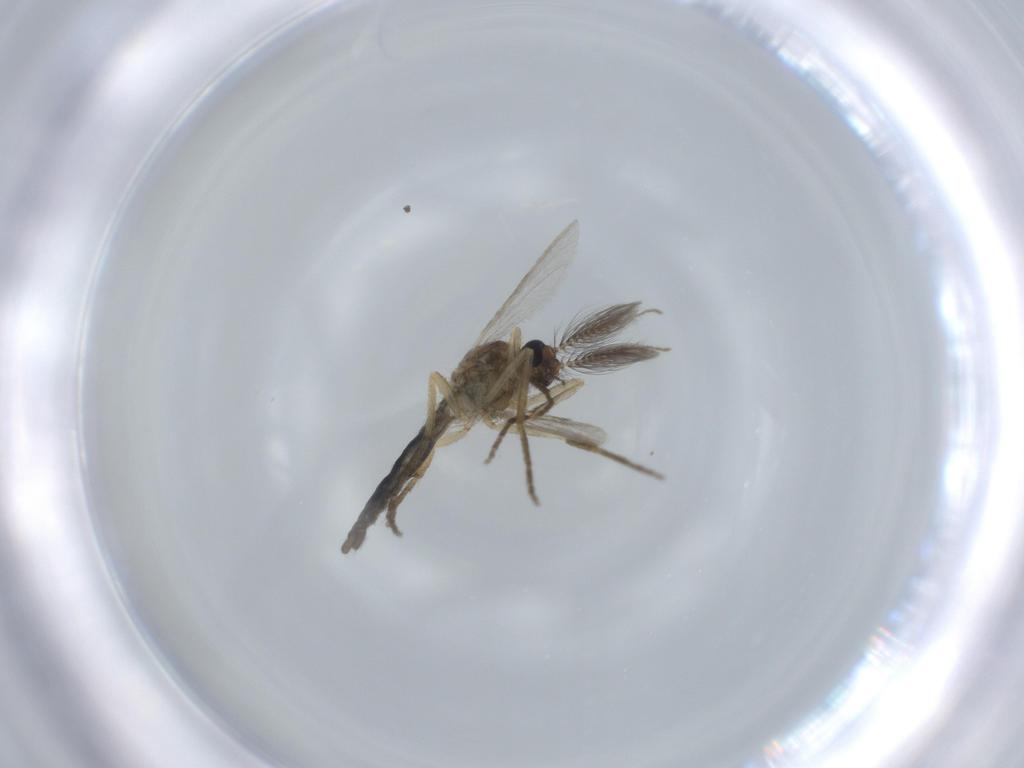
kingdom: Animalia
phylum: Arthropoda
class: Insecta
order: Diptera
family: Ceratopogonidae
